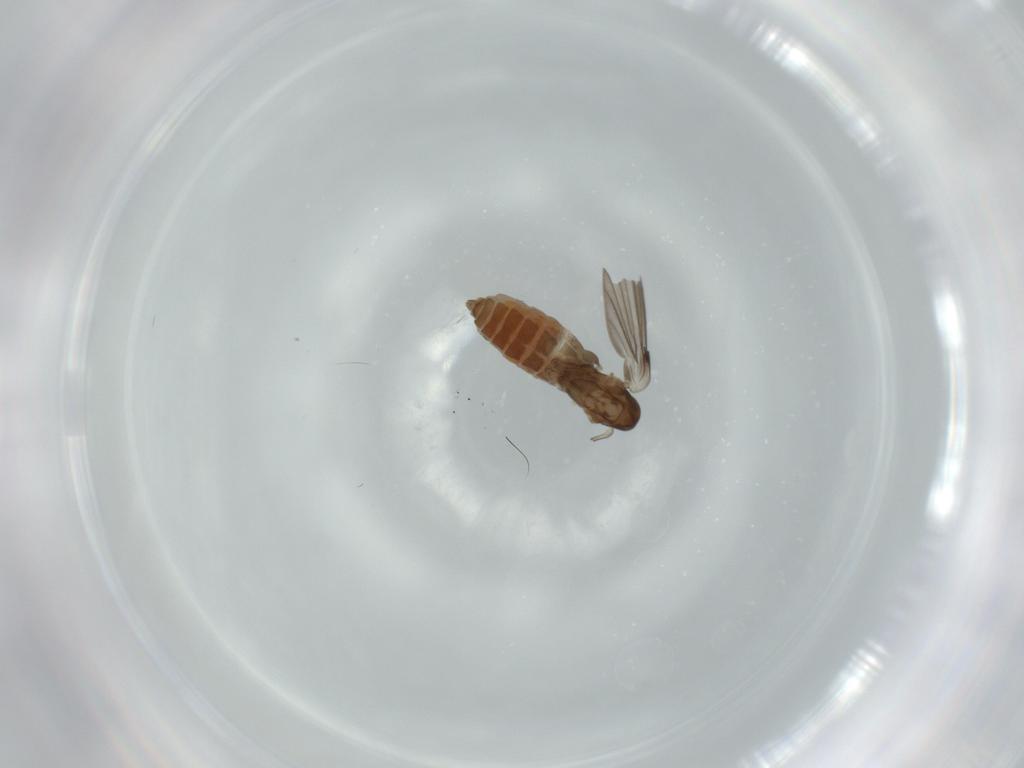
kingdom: Animalia
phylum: Arthropoda
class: Insecta
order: Diptera
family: Psychodidae
